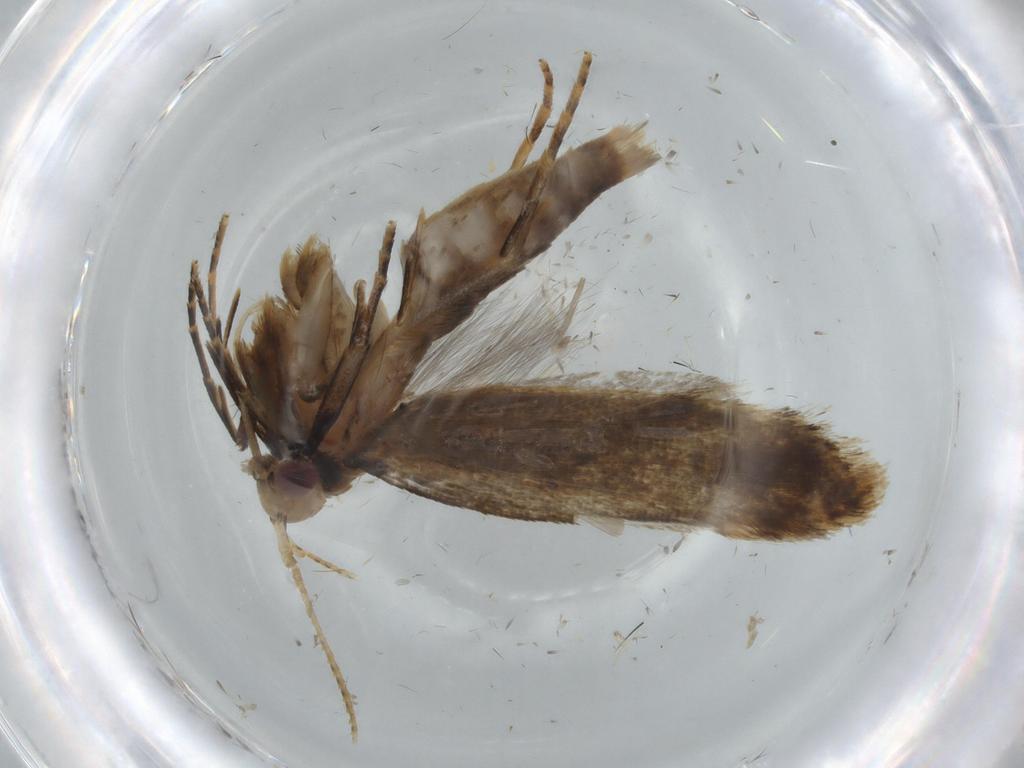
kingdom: Animalia
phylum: Arthropoda
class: Insecta
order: Lepidoptera
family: Gelechiidae
